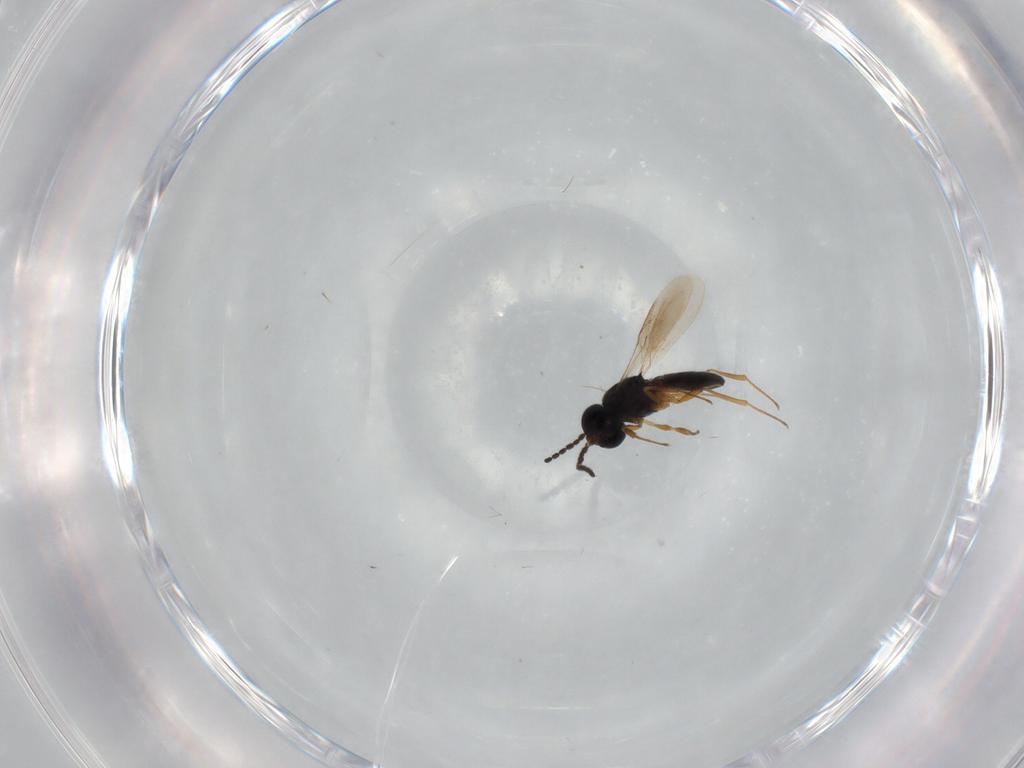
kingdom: Animalia
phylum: Arthropoda
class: Insecta
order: Hymenoptera
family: Scelionidae
